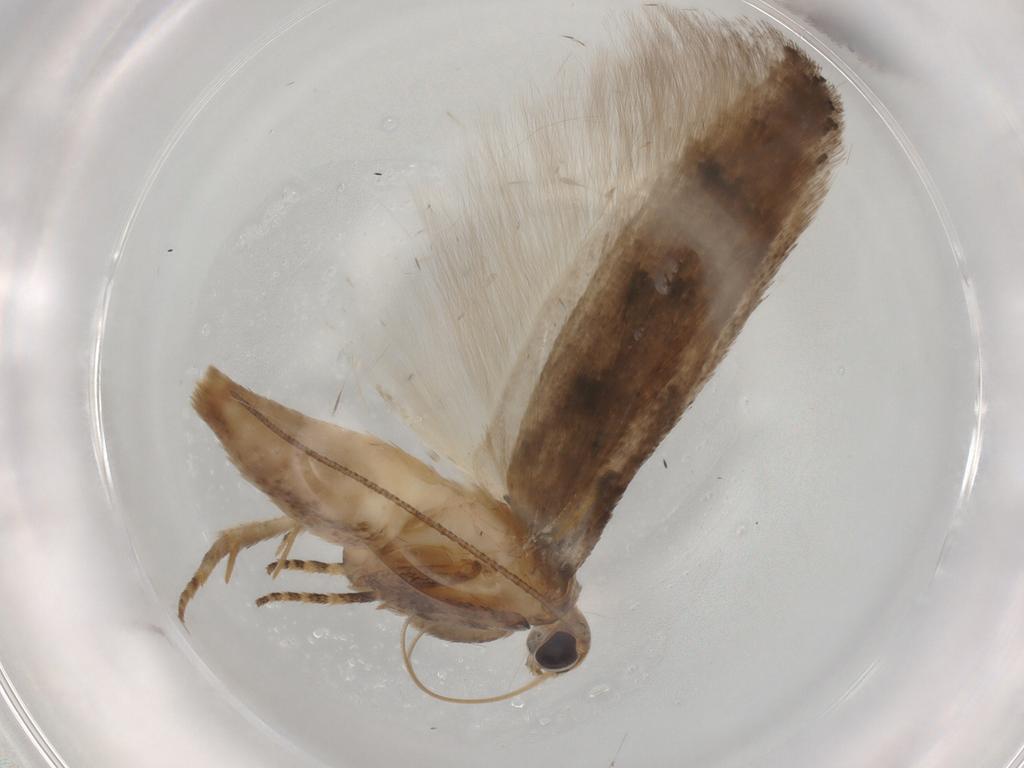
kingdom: Animalia
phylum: Arthropoda
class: Insecta
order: Lepidoptera
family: Gelechiidae
